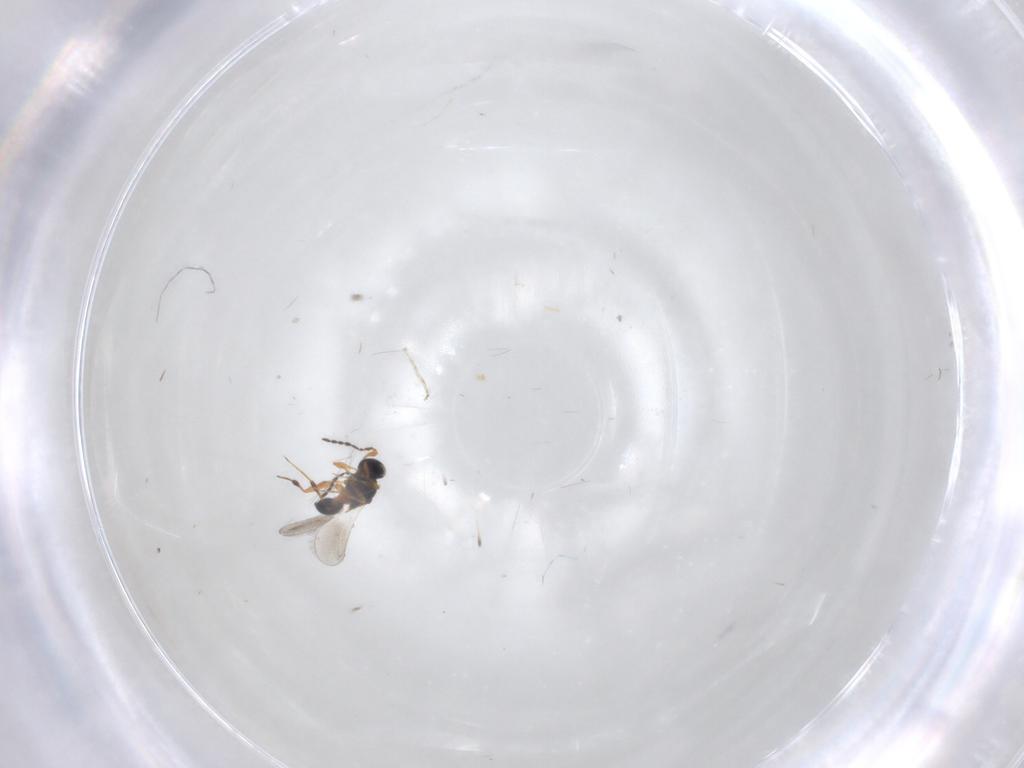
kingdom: Animalia
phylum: Arthropoda
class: Insecta
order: Hymenoptera
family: Platygastridae
